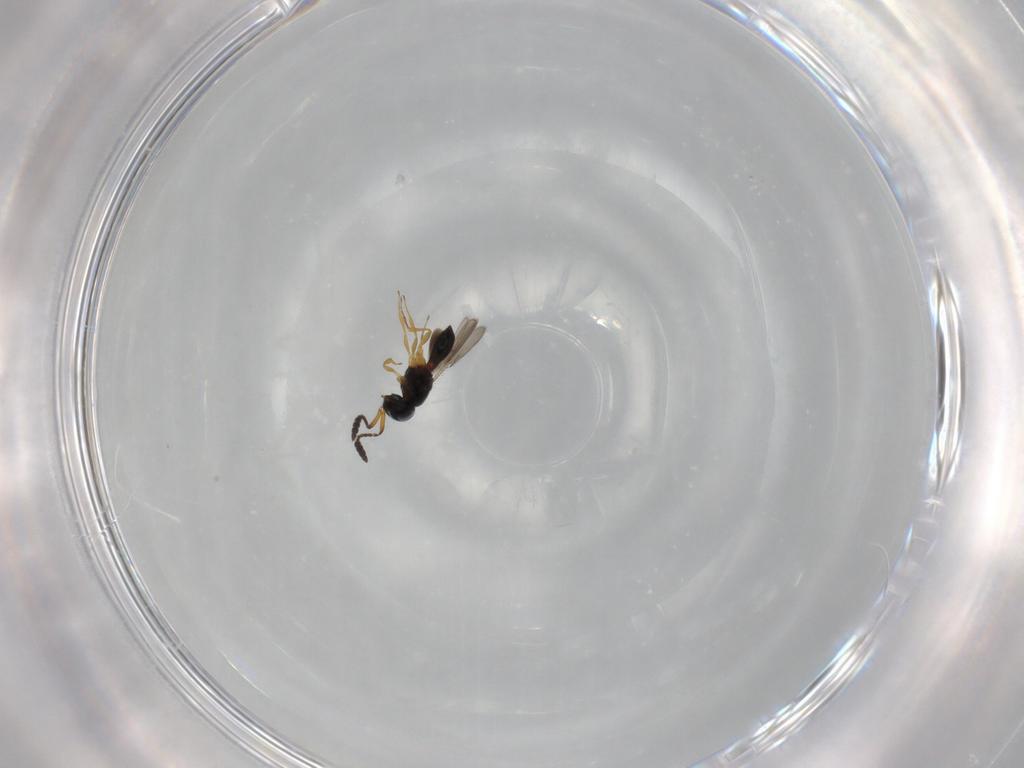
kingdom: Animalia
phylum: Arthropoda
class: Insecta
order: Hymenoptera
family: Scelionidae
